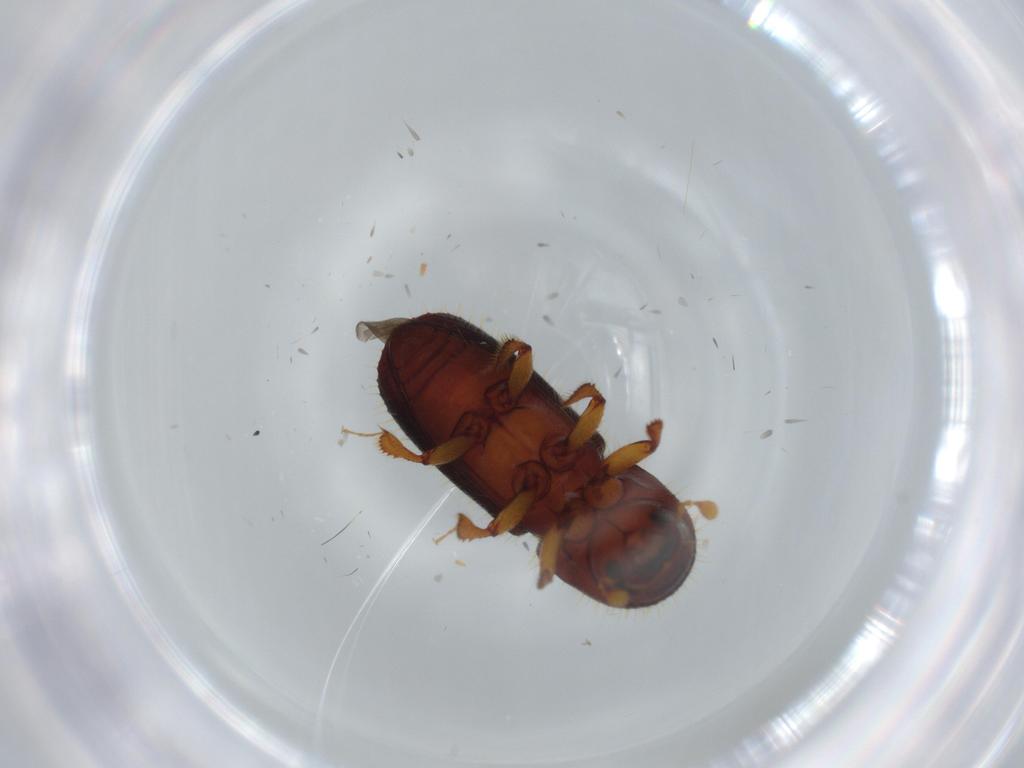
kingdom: Animalia
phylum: Arthropoda
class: Insecta
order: Coleoptera
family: Curculionidae
